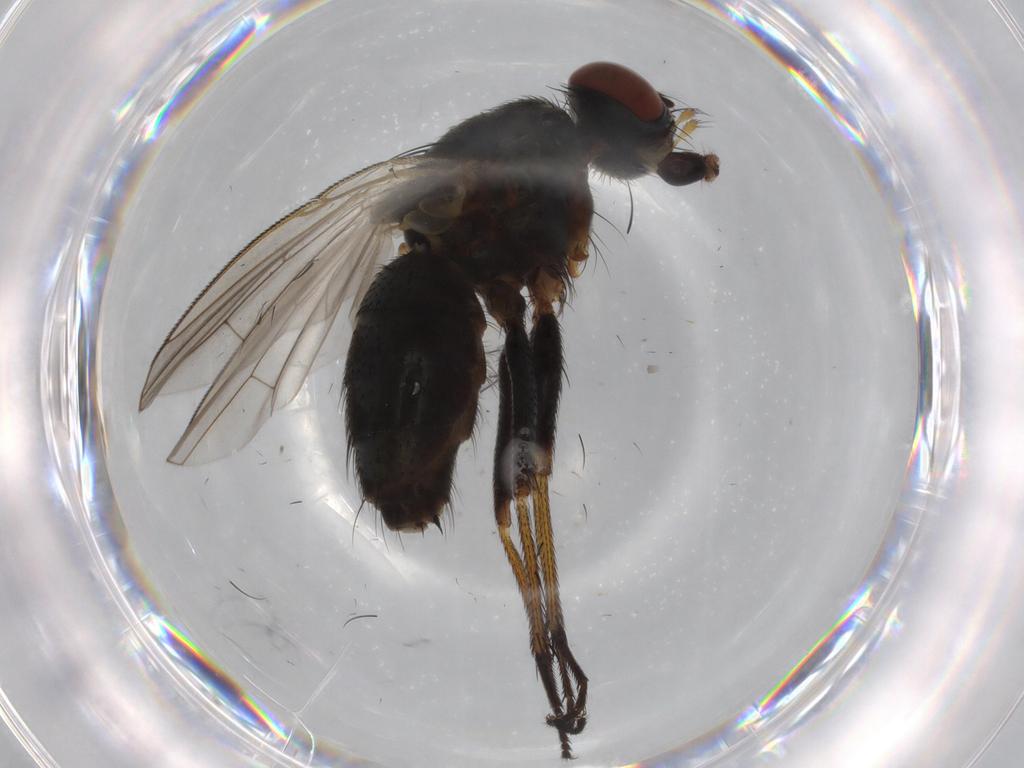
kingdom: Animalia
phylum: Arthropoda
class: Insecta
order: Diptera
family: Muscidae
